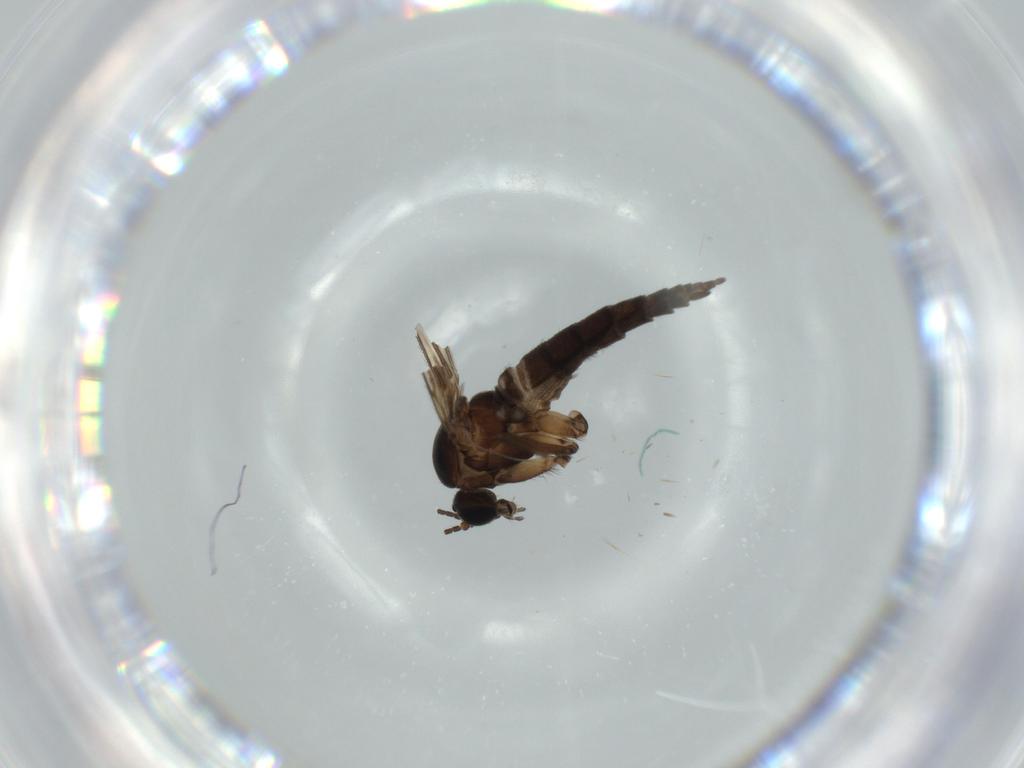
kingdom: Animalia
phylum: Arthropoda
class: Insecta
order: Diptera
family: Sciaridae
